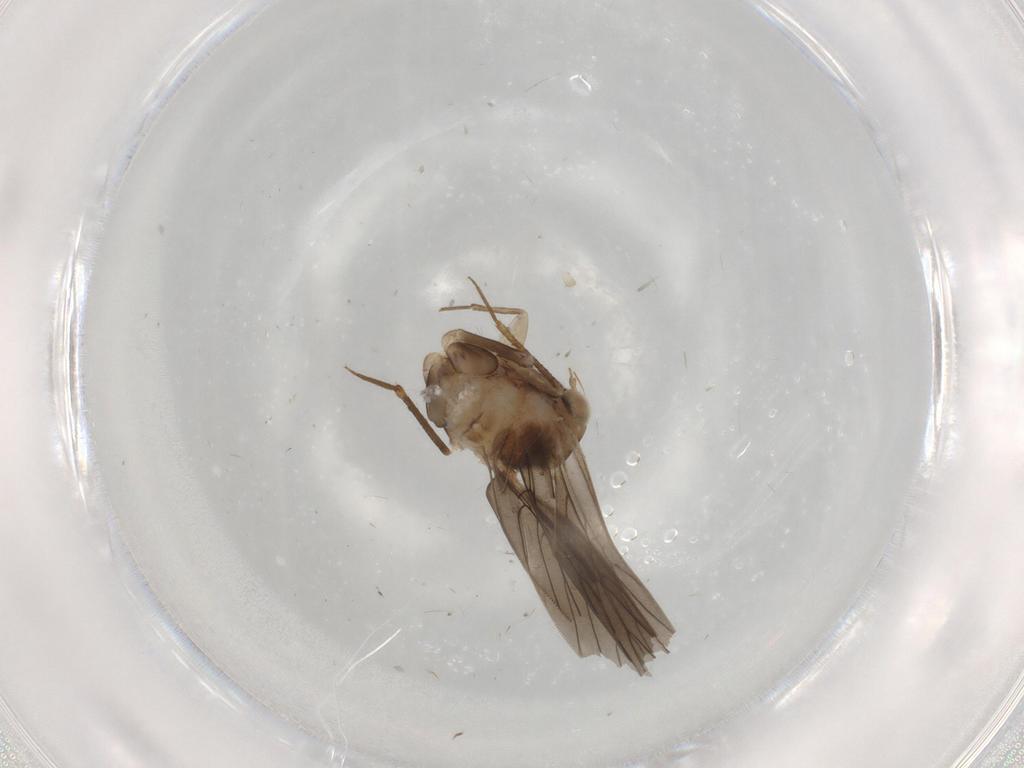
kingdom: Animalia
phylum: Arthropoda
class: Insecta
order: Psocodea
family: Lepidopsocidae
